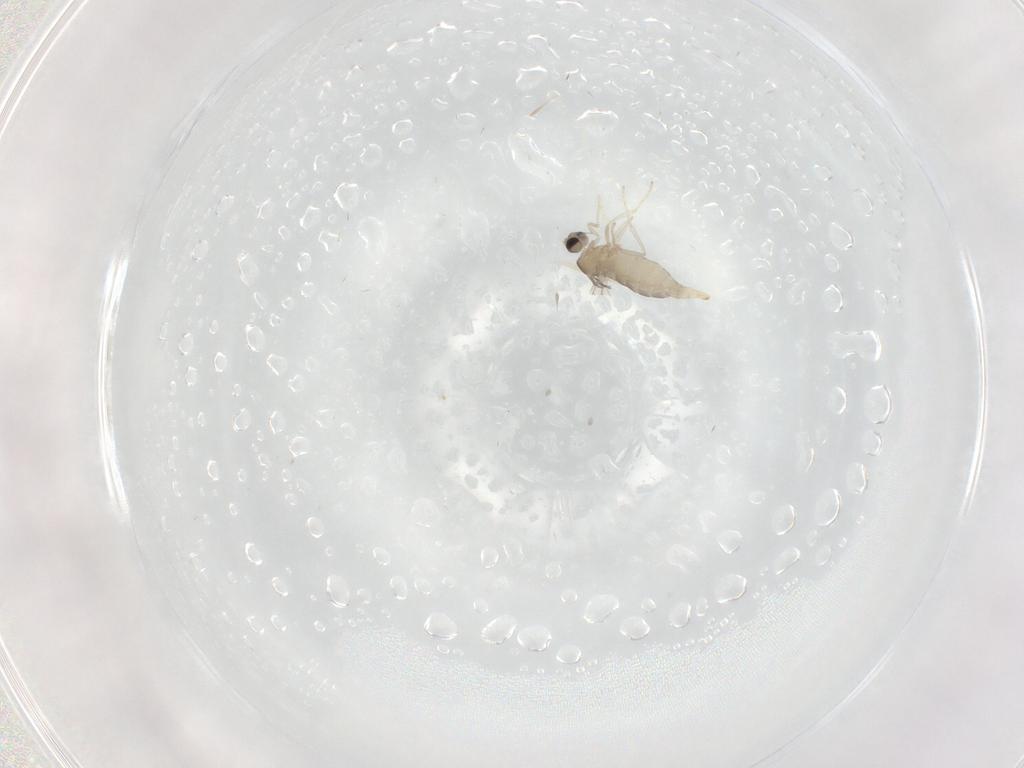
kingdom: Animalia
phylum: Arthropoda
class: Insecta
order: Diptera
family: Cecidomyiidae
